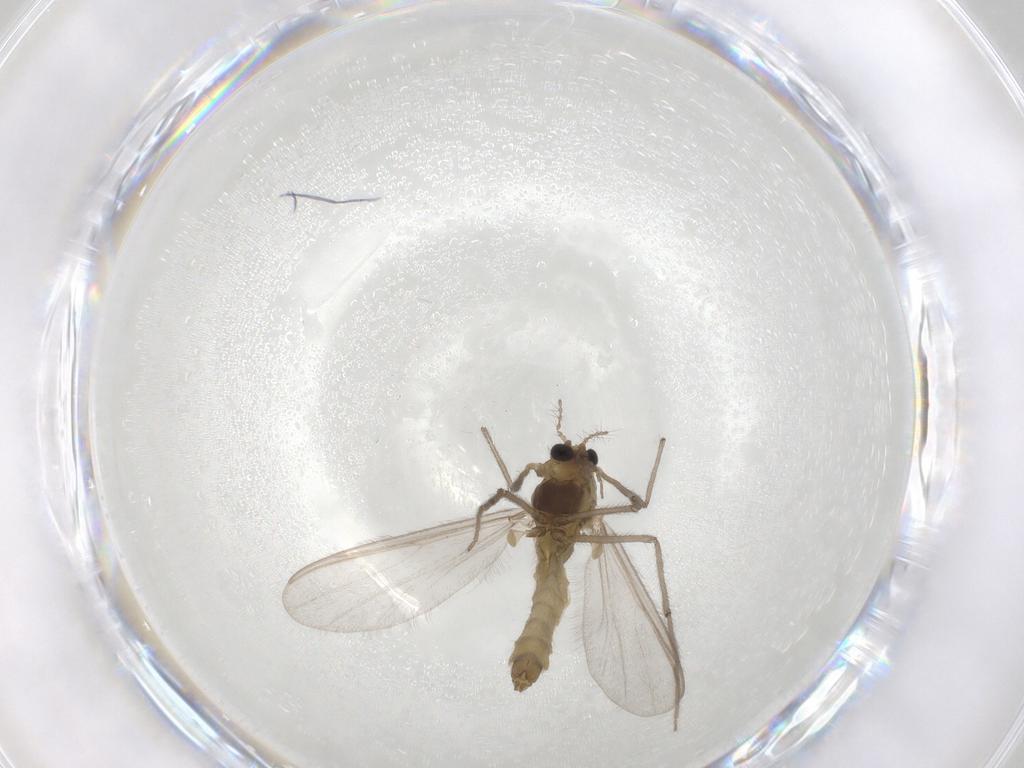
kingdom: Animalia
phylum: Arthropoda
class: Insecta
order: Diptera
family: Chironomidae
